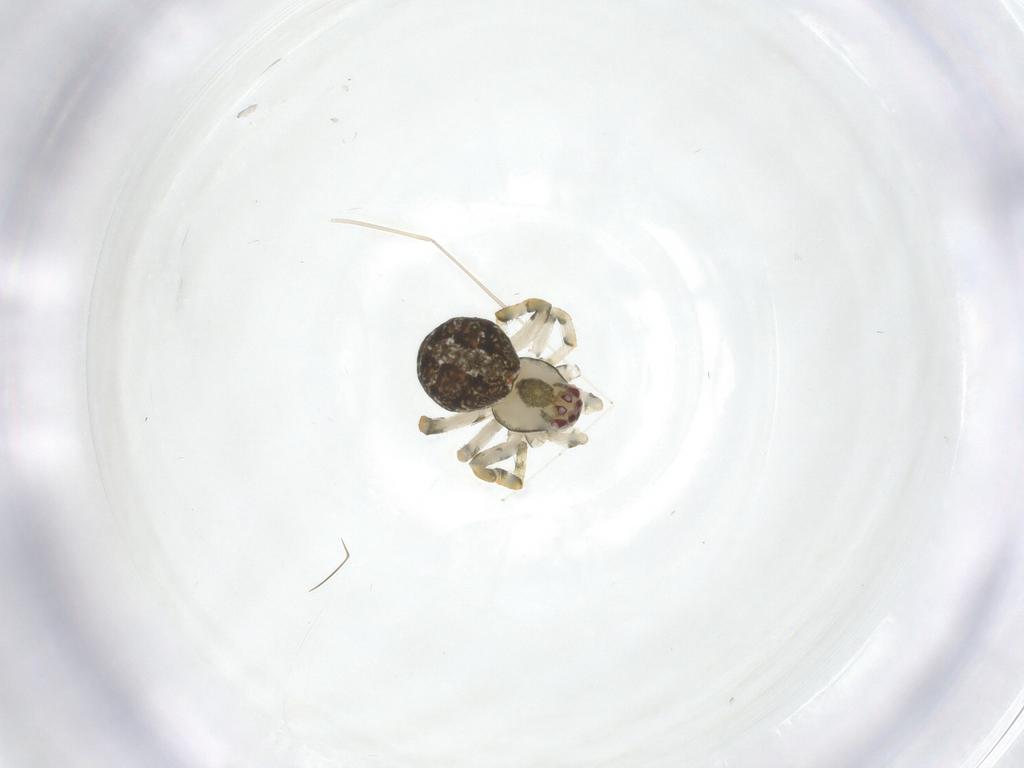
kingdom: Animalia
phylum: Arthropoda
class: Arachnida
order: Araneae
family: Theridiidae
